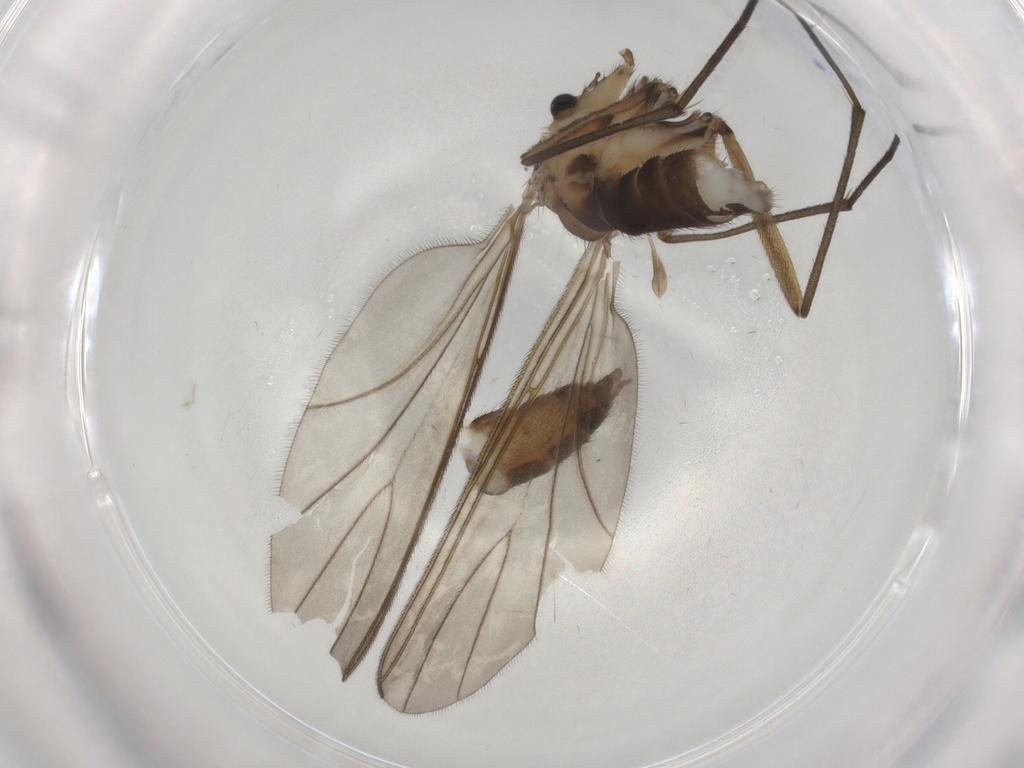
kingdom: Animalia
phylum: Arthropoda
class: Insecta
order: Diptera
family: Sciaridae
